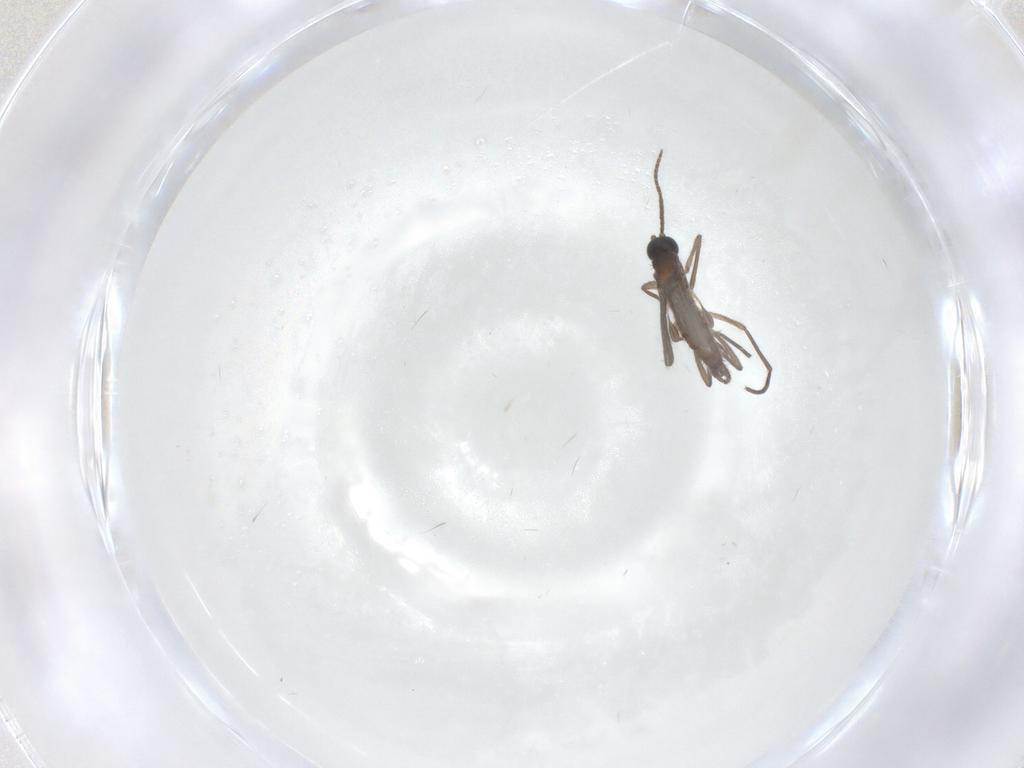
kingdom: Animalia
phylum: Arthropoda
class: Insecta
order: Diptera
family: Sciaridae
